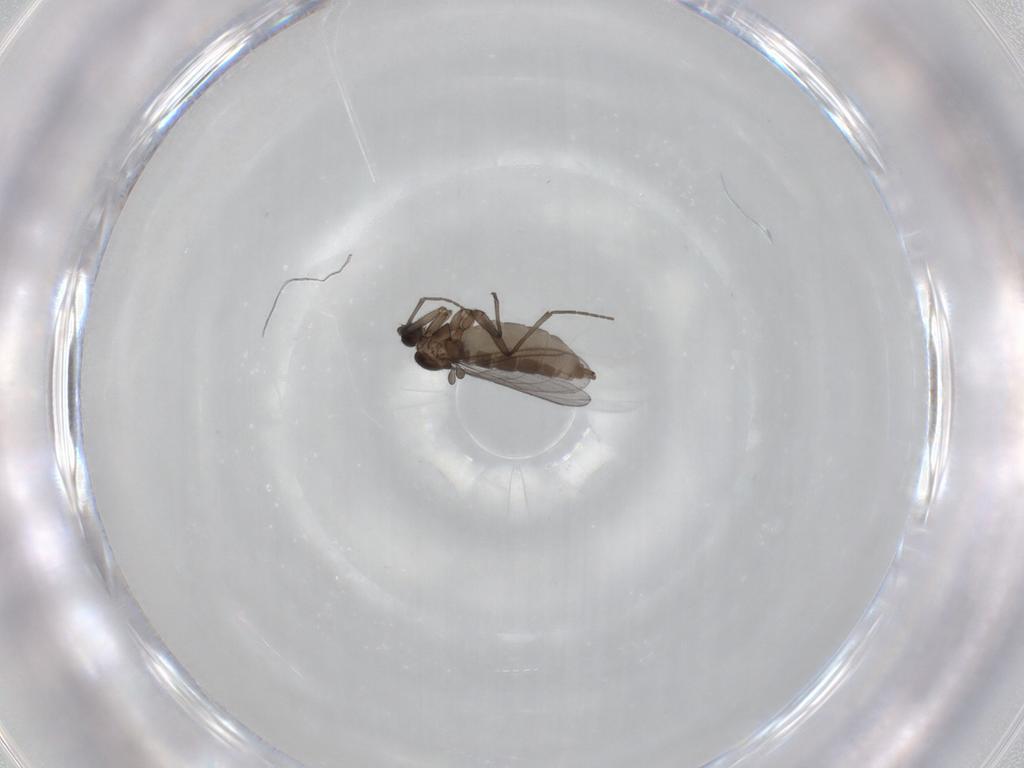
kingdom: Animalia
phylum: Arthropoda
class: Insecta
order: Diptera
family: Sciaridae
